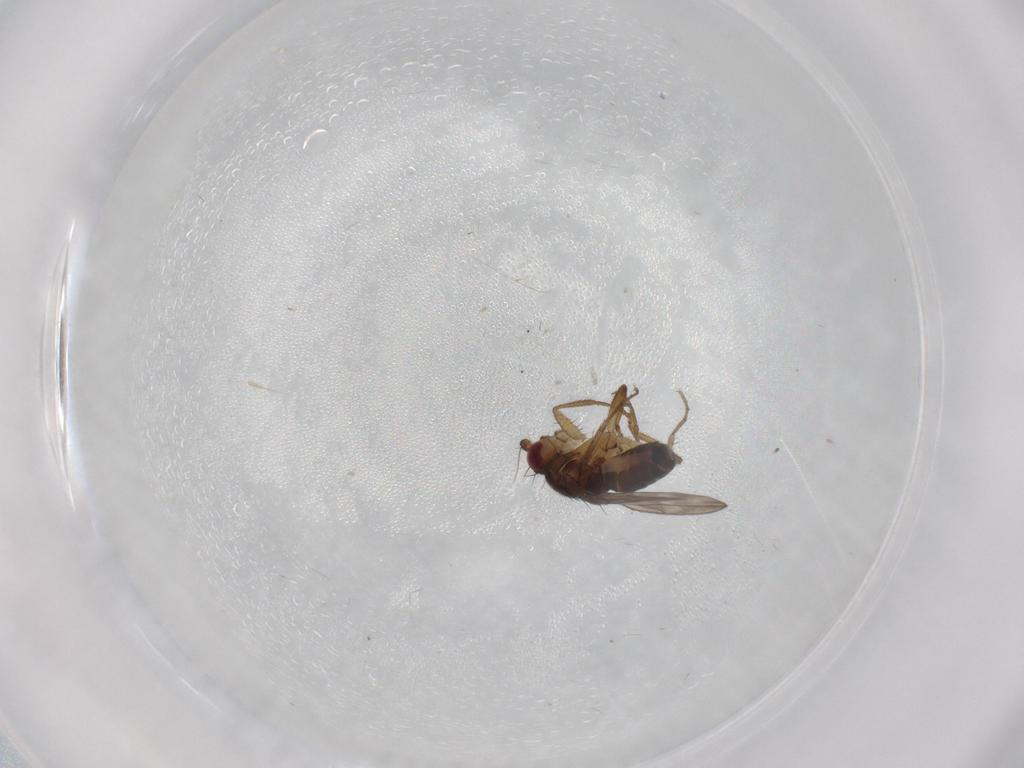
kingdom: Animalia
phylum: Arthropoda
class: Insecta
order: Diptera
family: Sphaeroceridae
